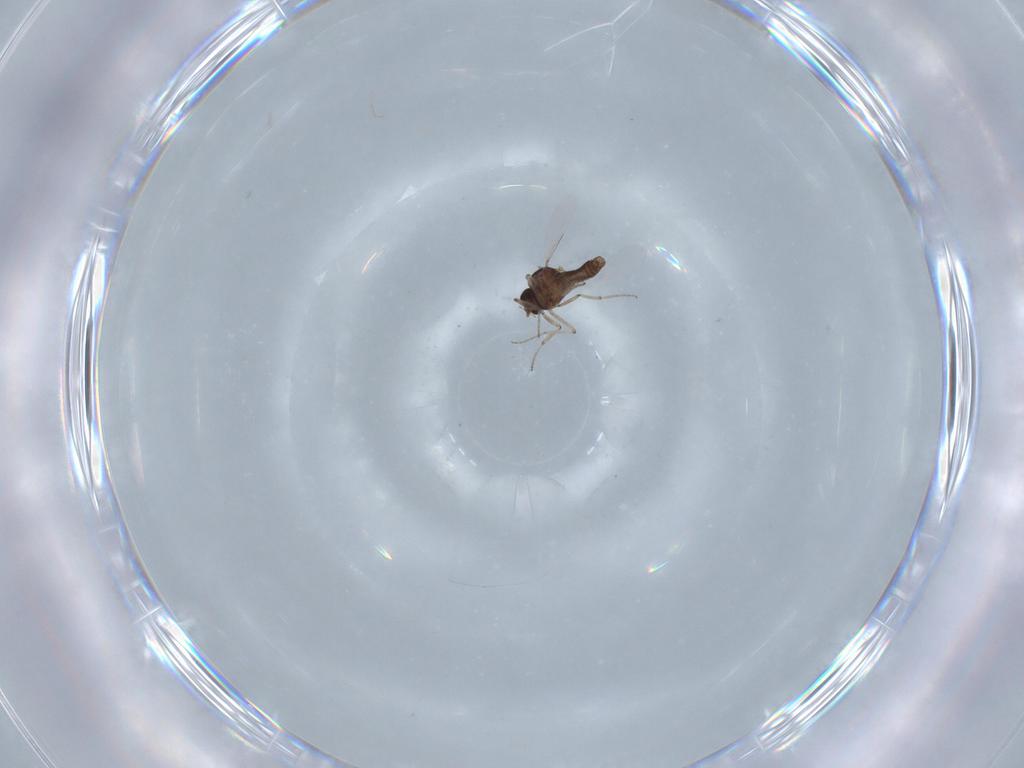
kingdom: Animalia
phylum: Arthropoda
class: Insecta
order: Diptera
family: Ceratopogonidae
